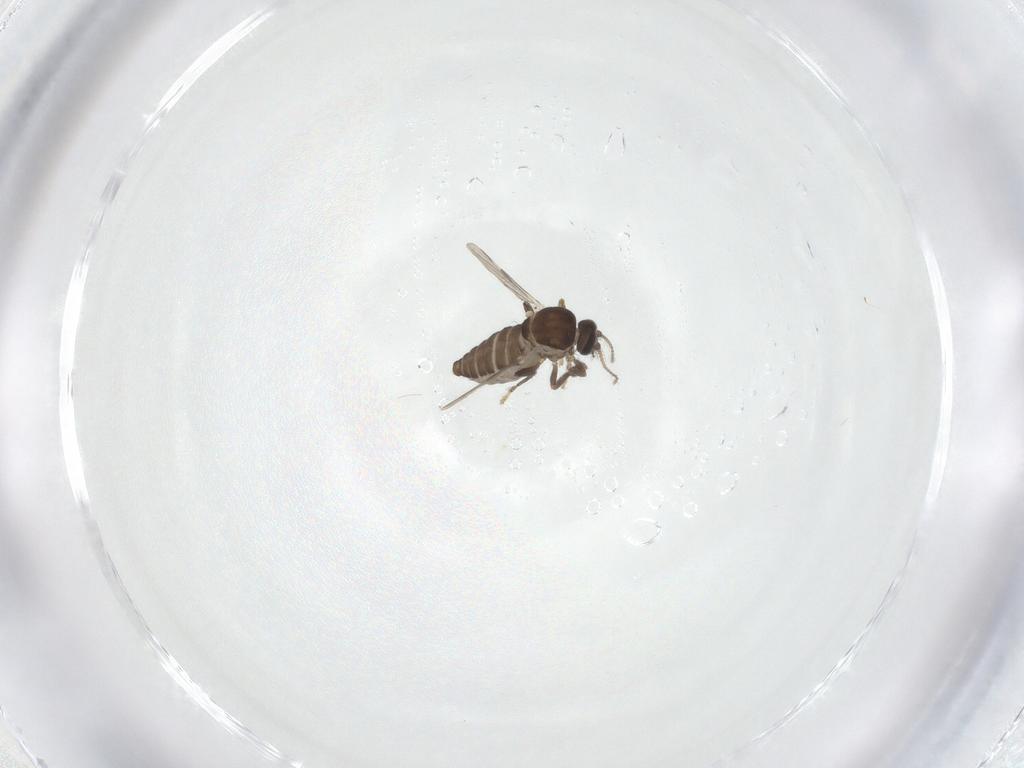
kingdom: Animalia
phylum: Arthropoda
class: Insecta
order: Diptera
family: Ceratopogonidae
